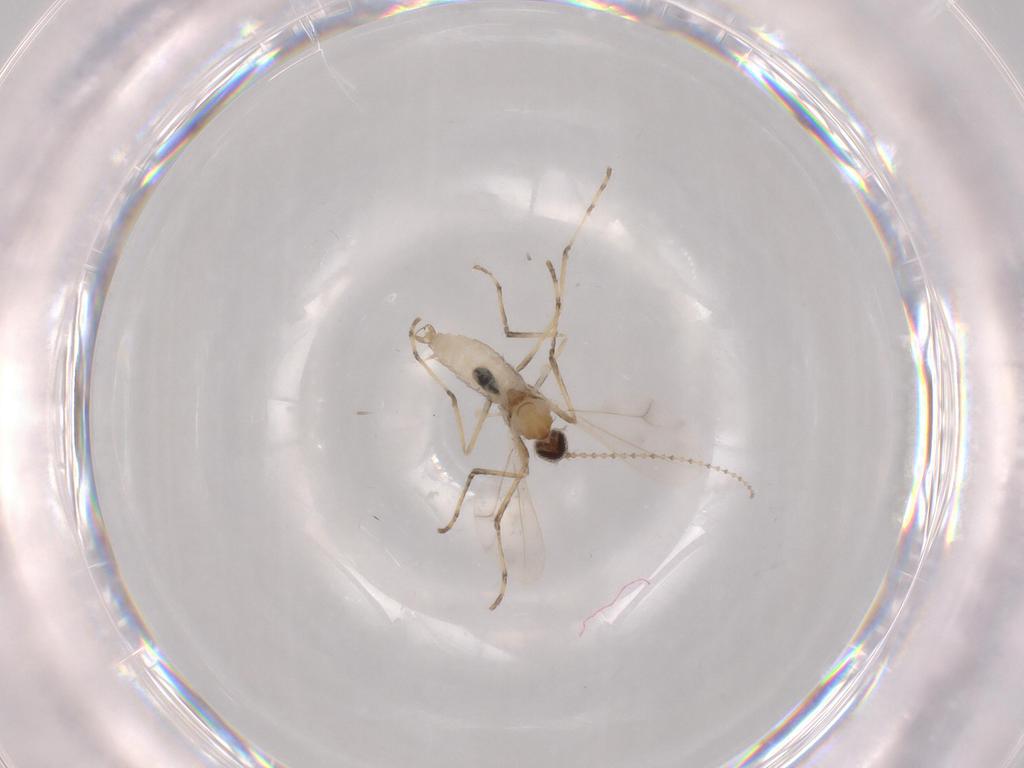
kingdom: Animalia
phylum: Arthropoda
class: Insecta
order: Diptera
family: Cecidomyiidae
